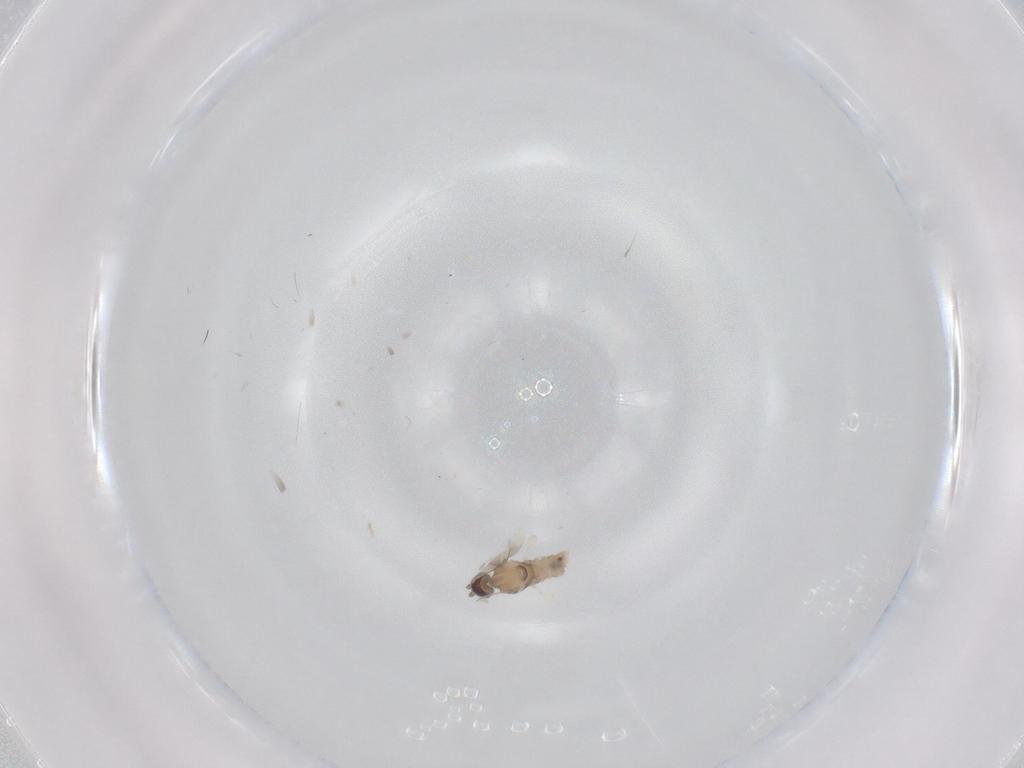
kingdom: Animalia
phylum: Arthropoda
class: Insecta
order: Diptera
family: Cecidomyiidae
